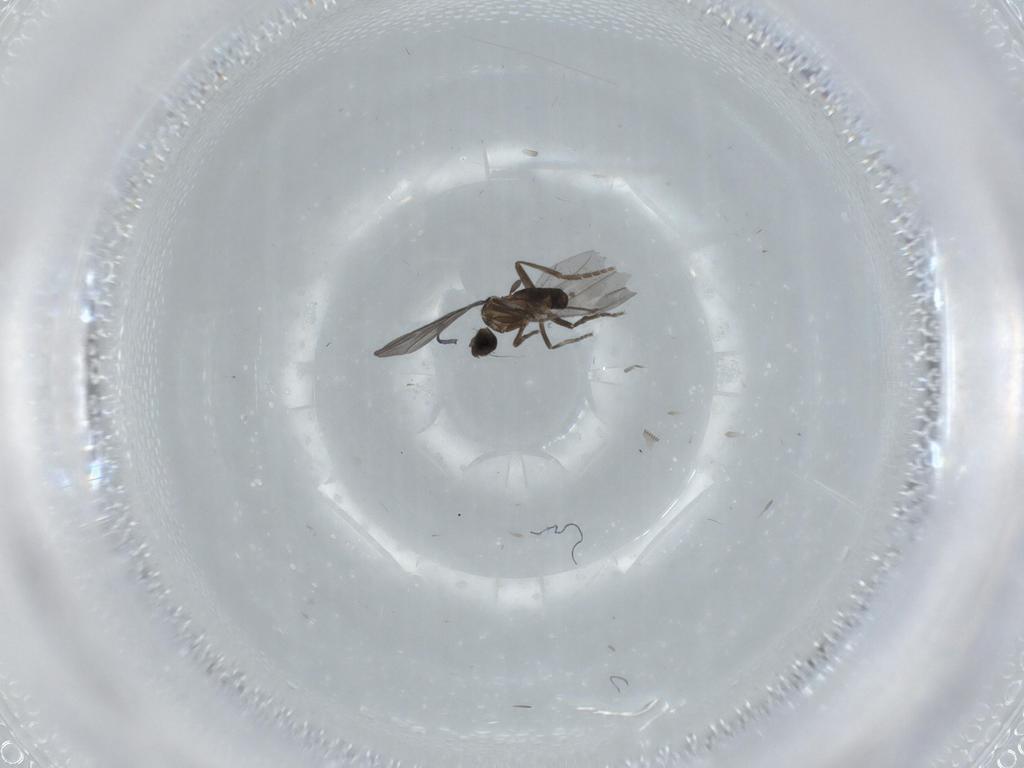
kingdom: Animalia
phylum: Arthropoda
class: Insecta
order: Diptera
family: Phoridae
